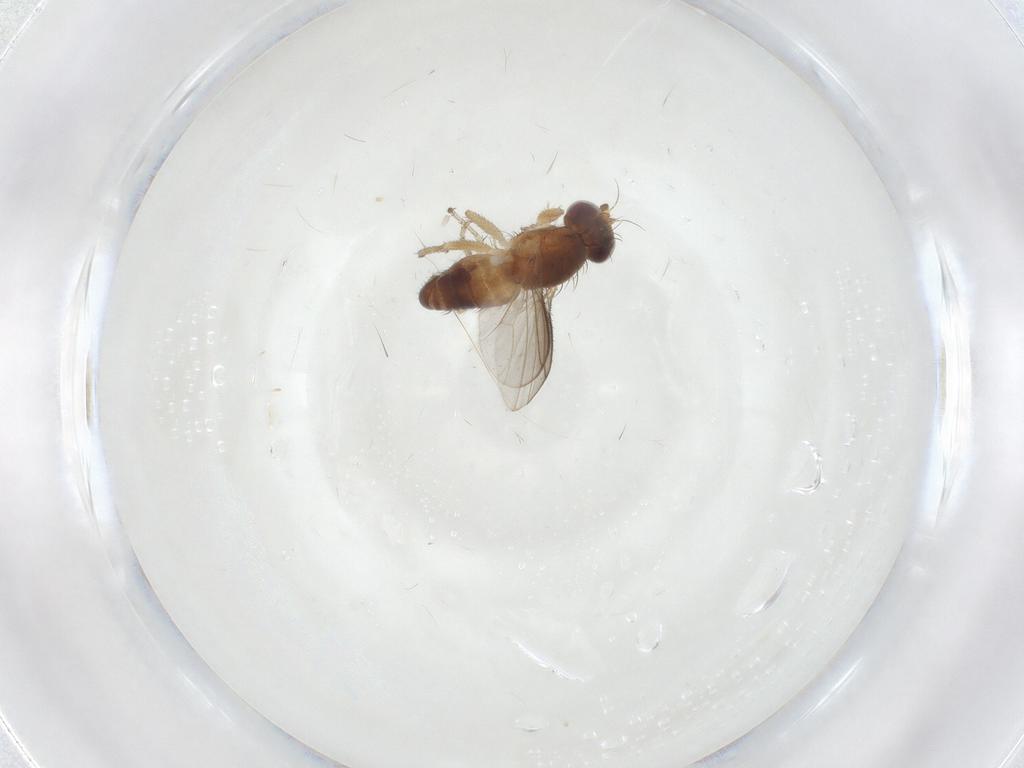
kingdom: Animalia
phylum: Arthropoda
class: Insecta
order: Diptera
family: Heleomyzidae
